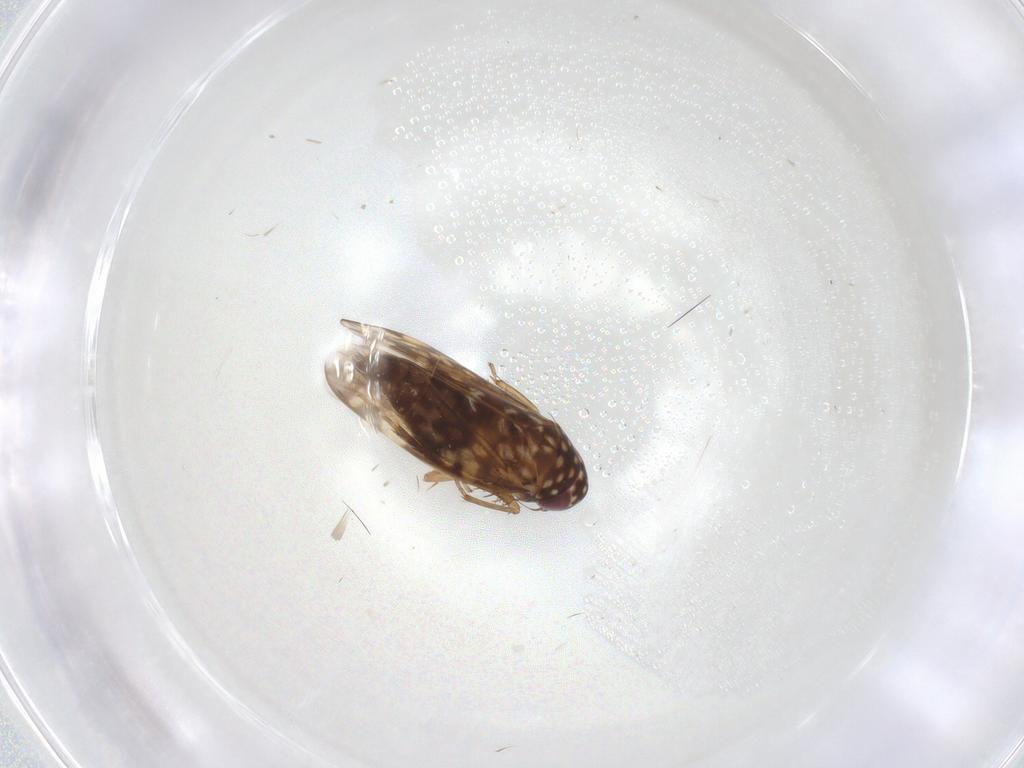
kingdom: Animalia
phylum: Arthropoda
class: Insecta
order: Hemiptera
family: Cicadellidae
